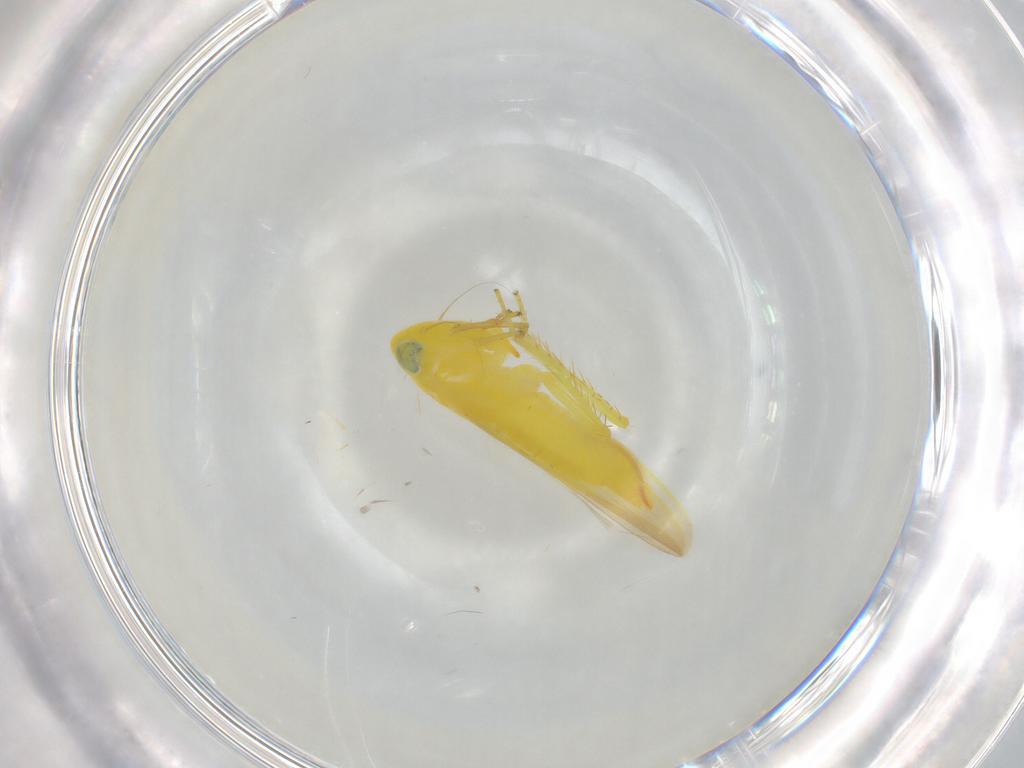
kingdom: Animalia
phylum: Arthropoda
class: Insecta
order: Hemiptera
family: Cicadellidae
